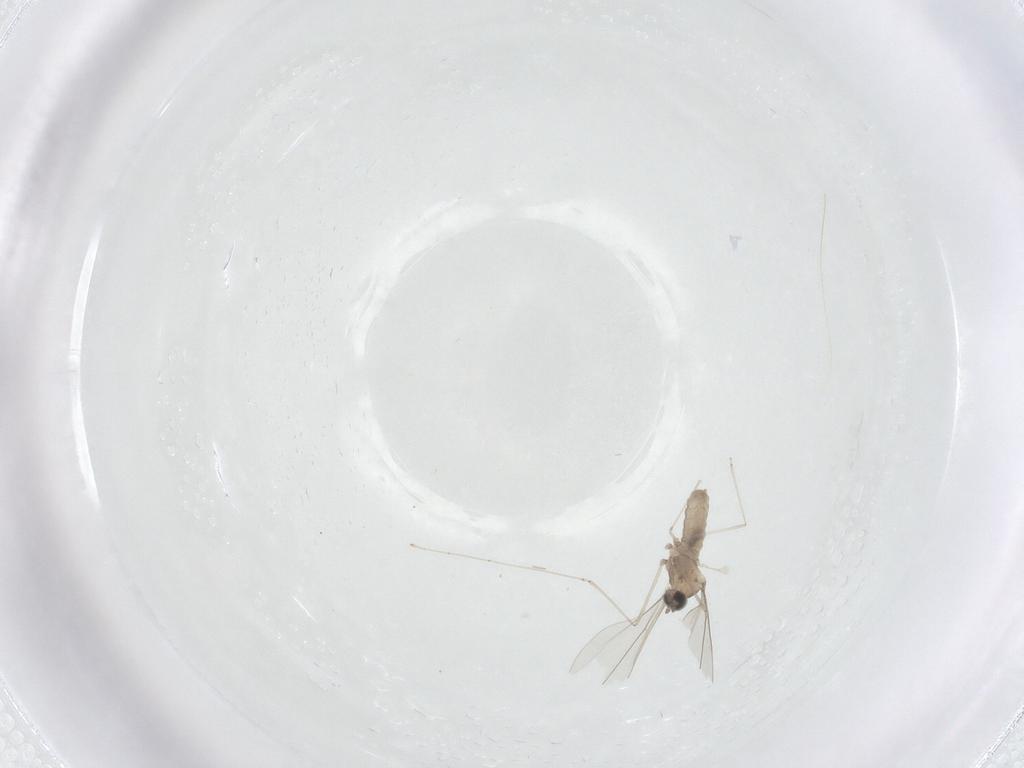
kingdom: Animalia
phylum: Arthropoda
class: Insecta
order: Diptera
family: Cecidomyiidae
